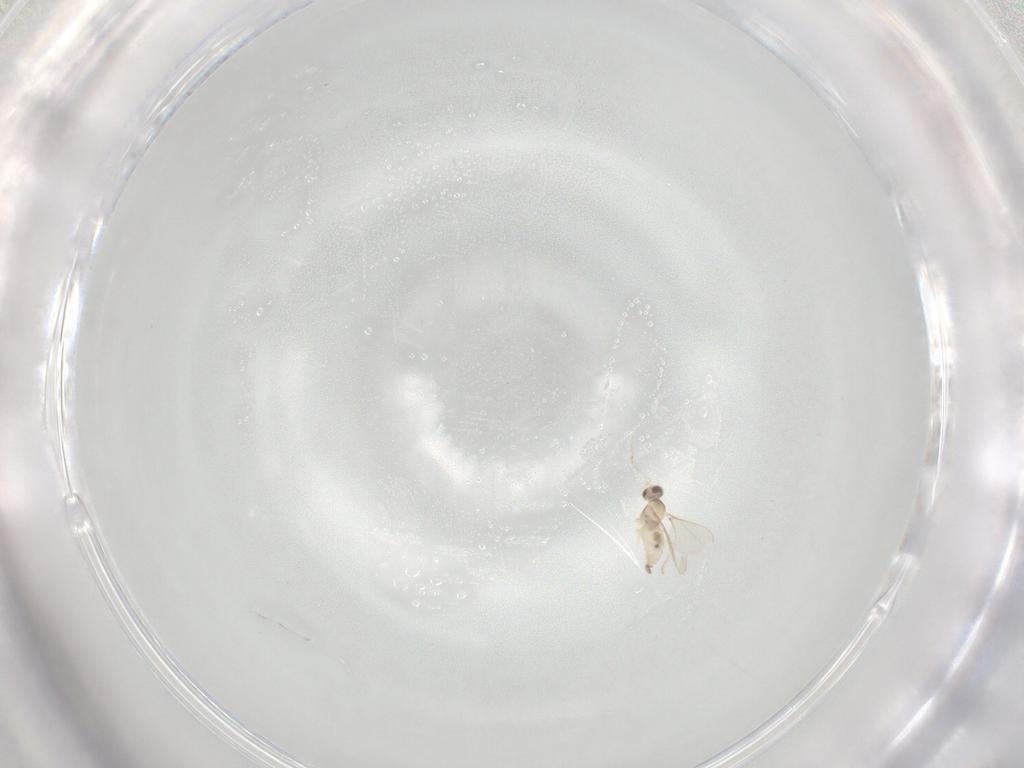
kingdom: Animalia
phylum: Arthropoda
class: Insecta
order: Diptera
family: Cecidomyiidae
